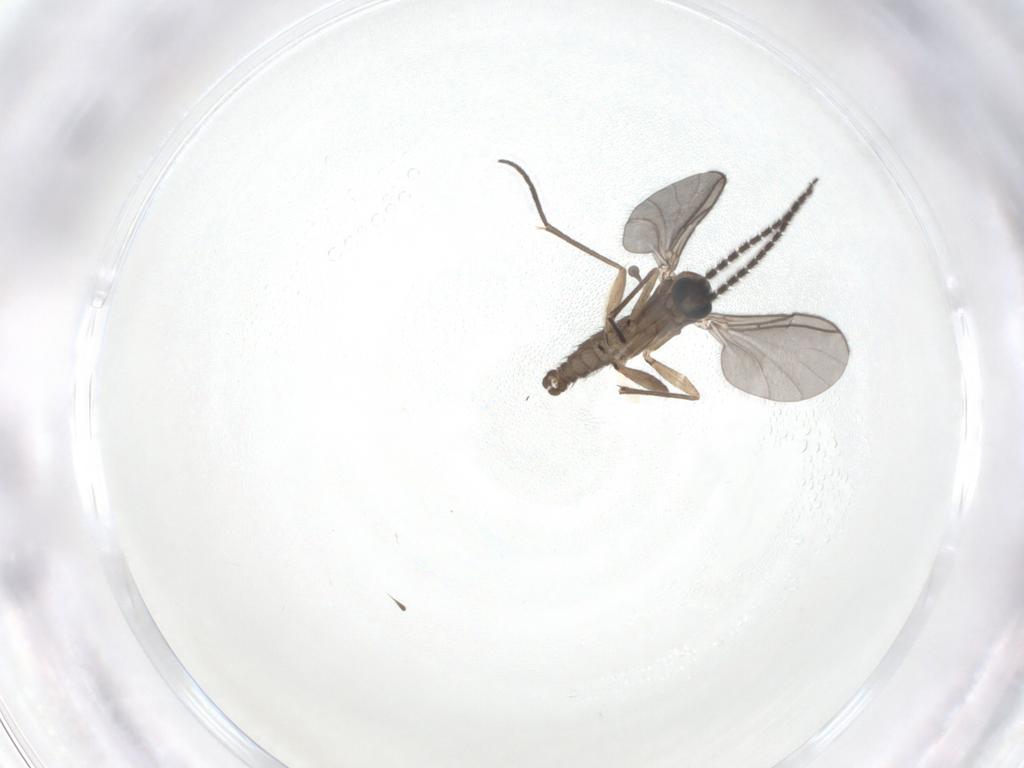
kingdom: Animalia
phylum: Arthropoda
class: Insecta
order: Diptera
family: Sciaridae
